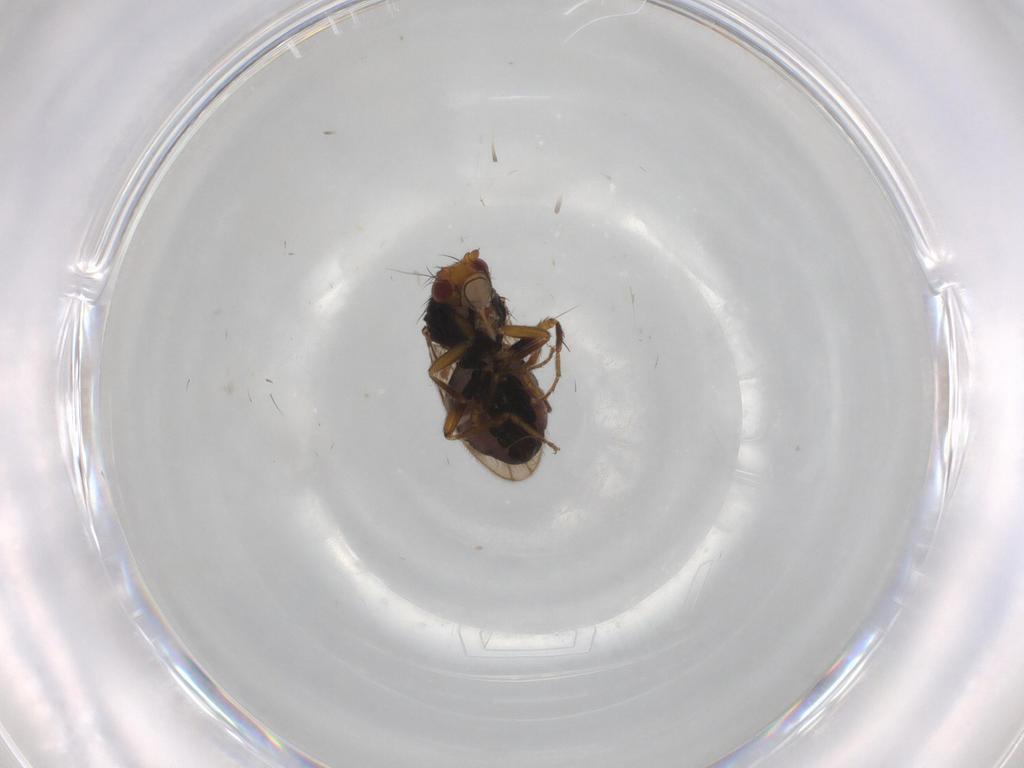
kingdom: Animalia
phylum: Arthropoda
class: Insecta
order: Diptera
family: Sphaeroceridae
